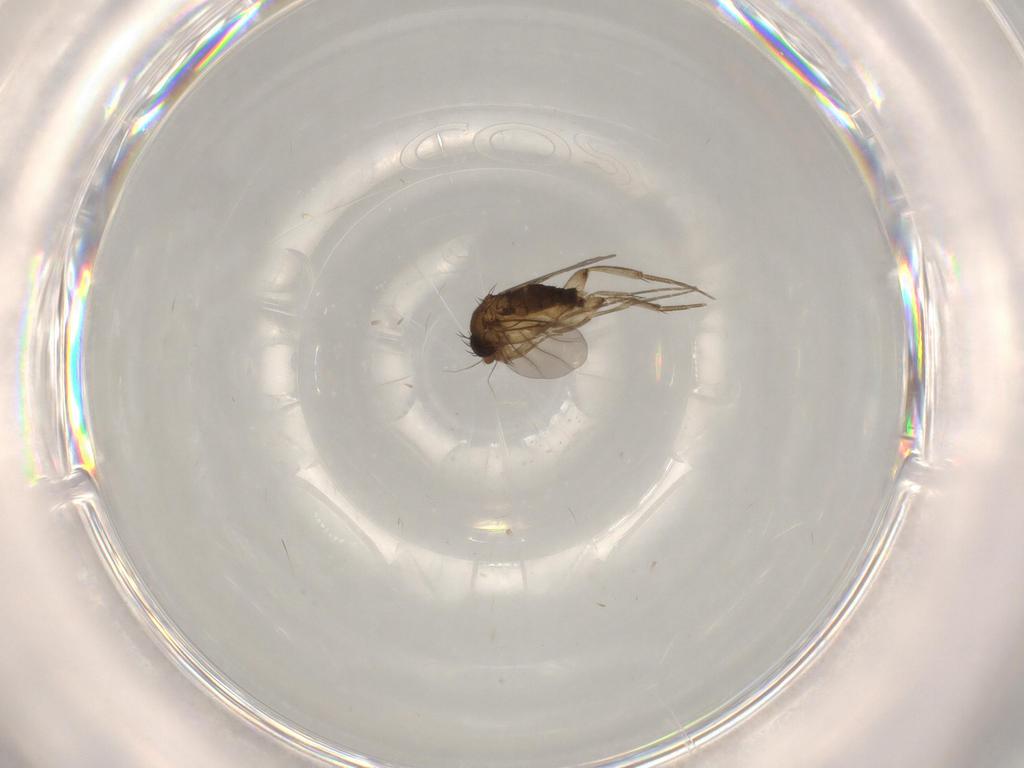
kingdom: Animalia
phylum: Arthropoda
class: Insecta
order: Diptera
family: Phoridae
